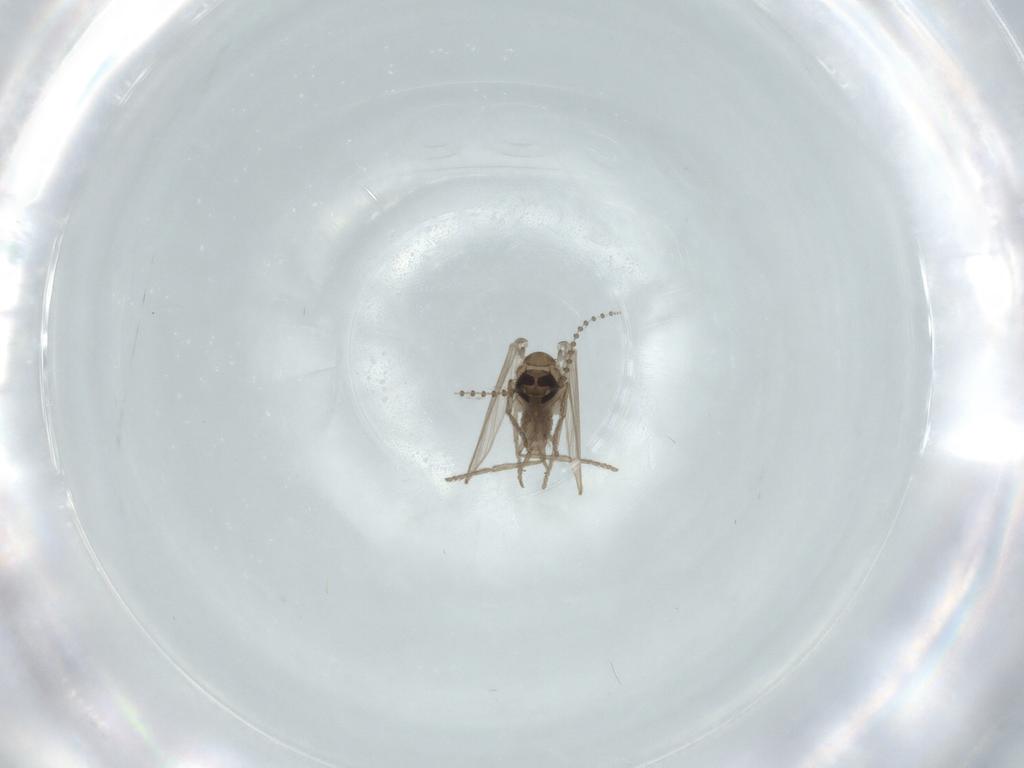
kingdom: Animalia
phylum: Arthropoda
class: Insecta
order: Diptera
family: Psychodidae
